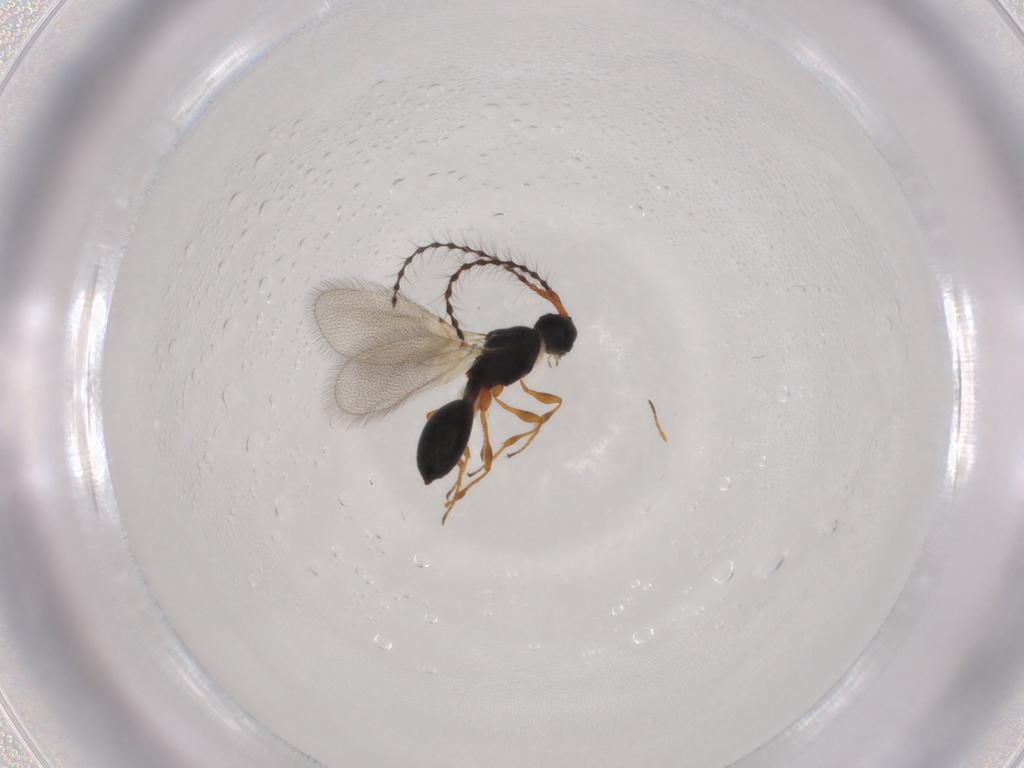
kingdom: Animalia
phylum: Arthropoda
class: Insecta
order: Hymenoptera
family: Diapriidae
